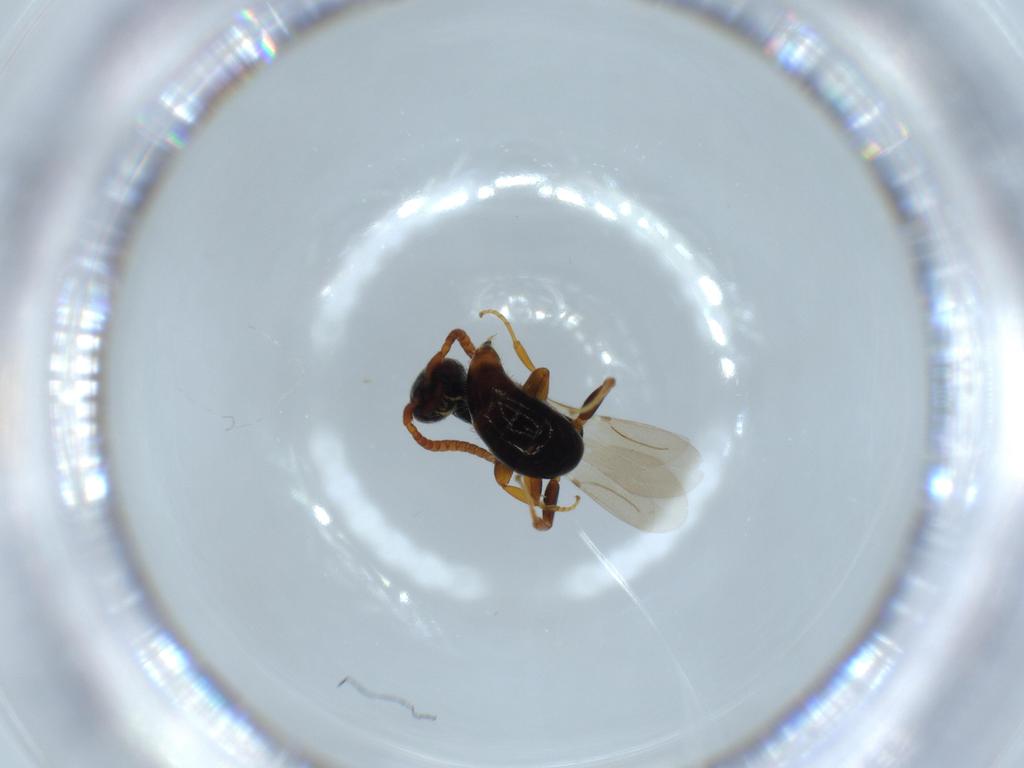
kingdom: Animalia
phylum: Arthropoda
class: Insecta
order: Hymenoptera
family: Bethylidae
